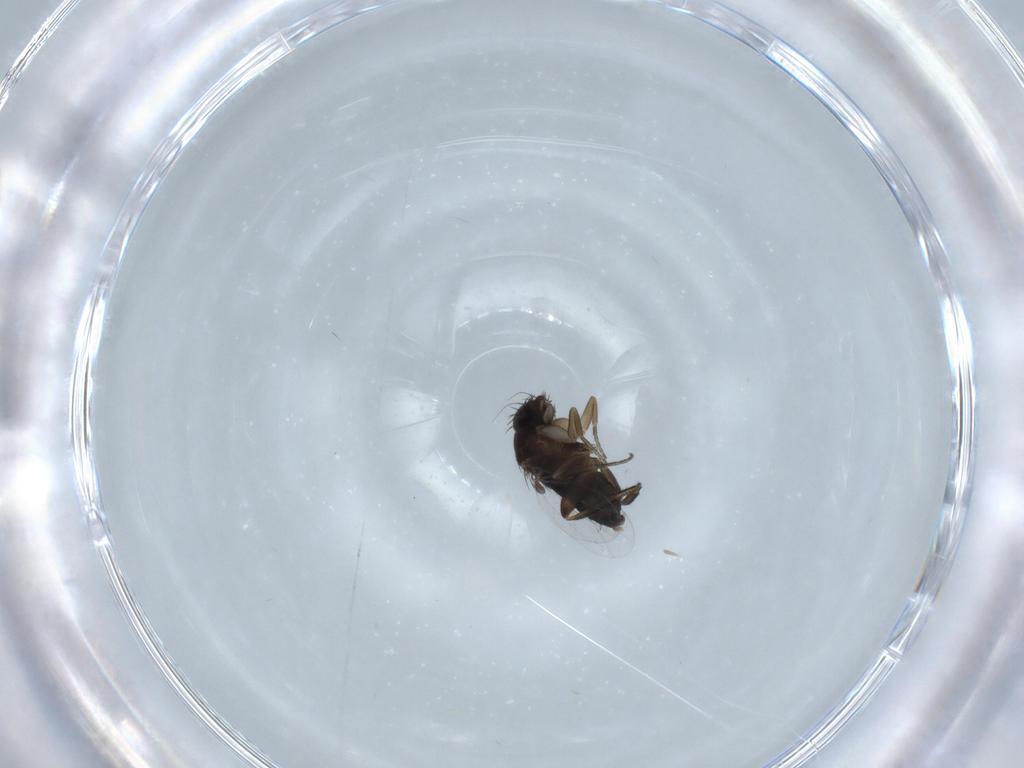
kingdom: Animalia
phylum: Arthropoda
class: Insecta
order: Diptera
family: Phoridae
